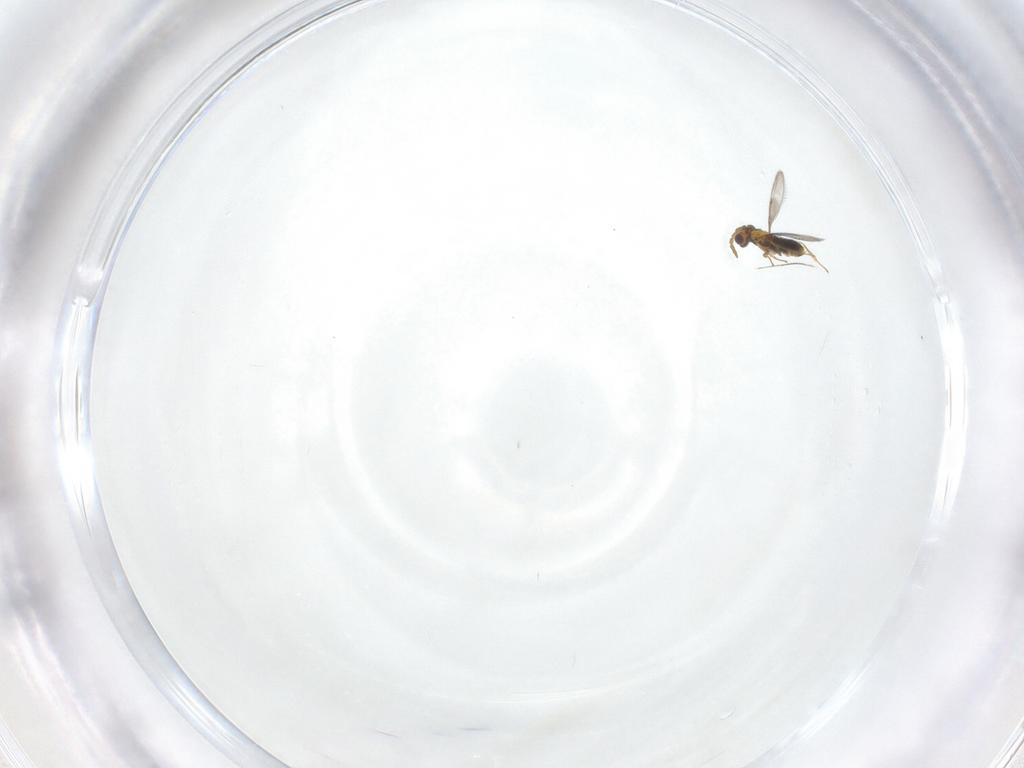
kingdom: Animalia
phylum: Arthropoda
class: Insecta
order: Hymenoptera
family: Aphelinidae
